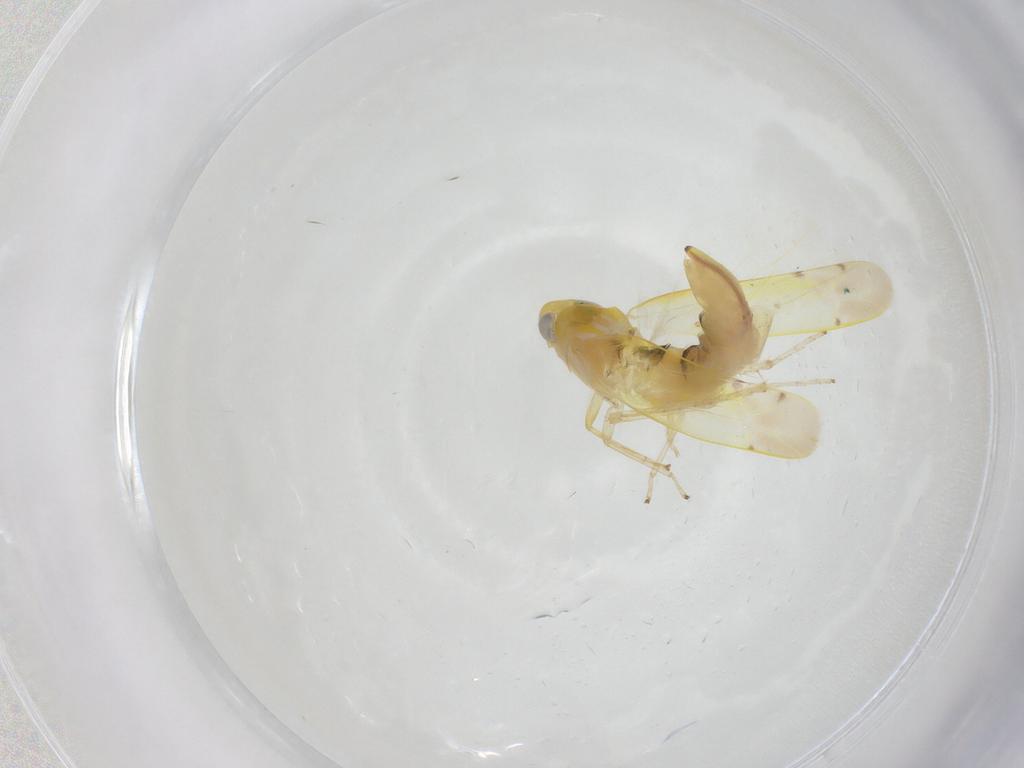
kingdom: Animalia
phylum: Arthropoda
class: Insecta
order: Hemiptera
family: Cicadellidae
